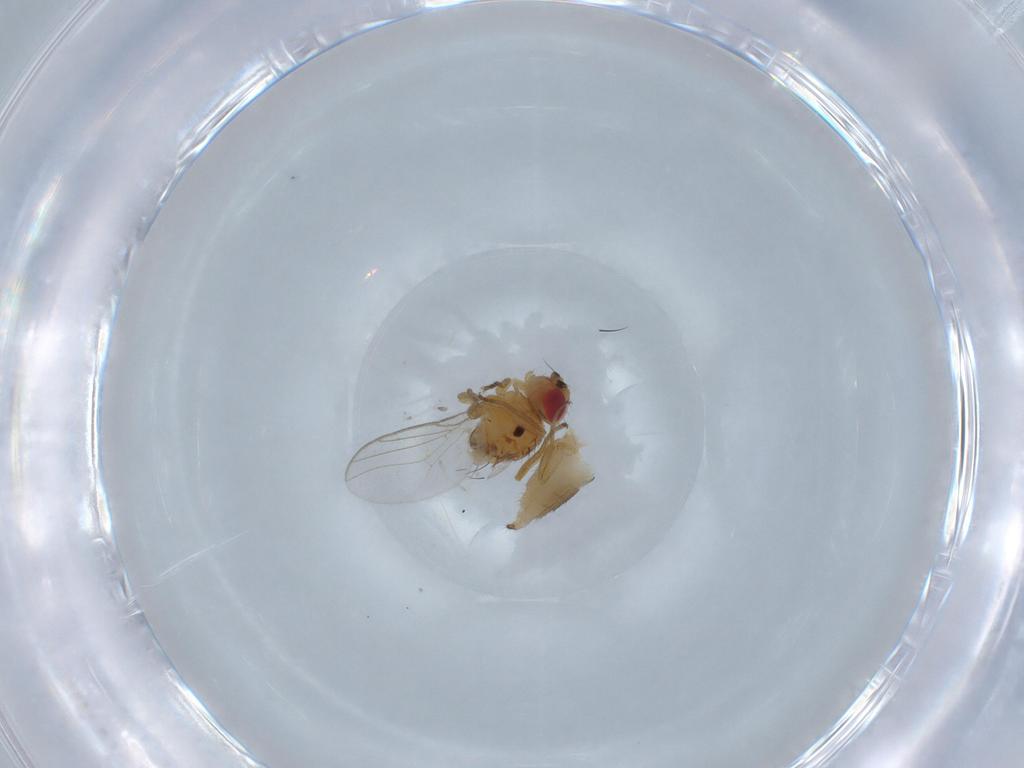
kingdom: Animalia
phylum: Arthropoda
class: Insecta
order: Diptera
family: Chloropidae
